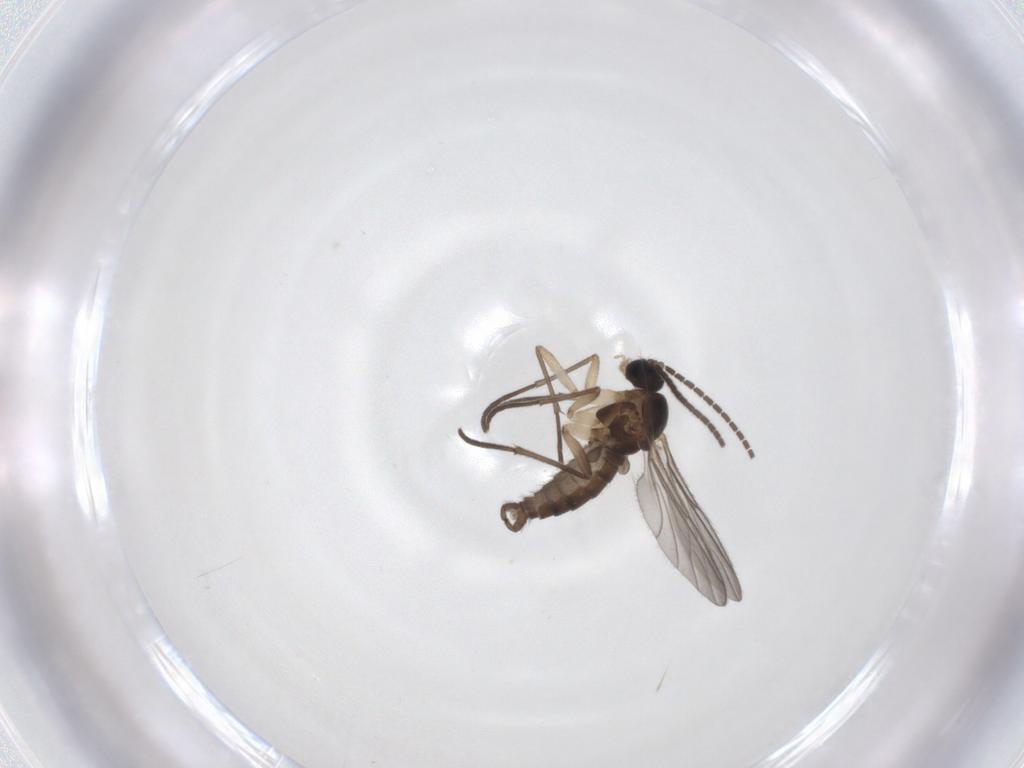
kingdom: Animalia
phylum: Arthropoda
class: Insecta
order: Diptera
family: Sciaridae
